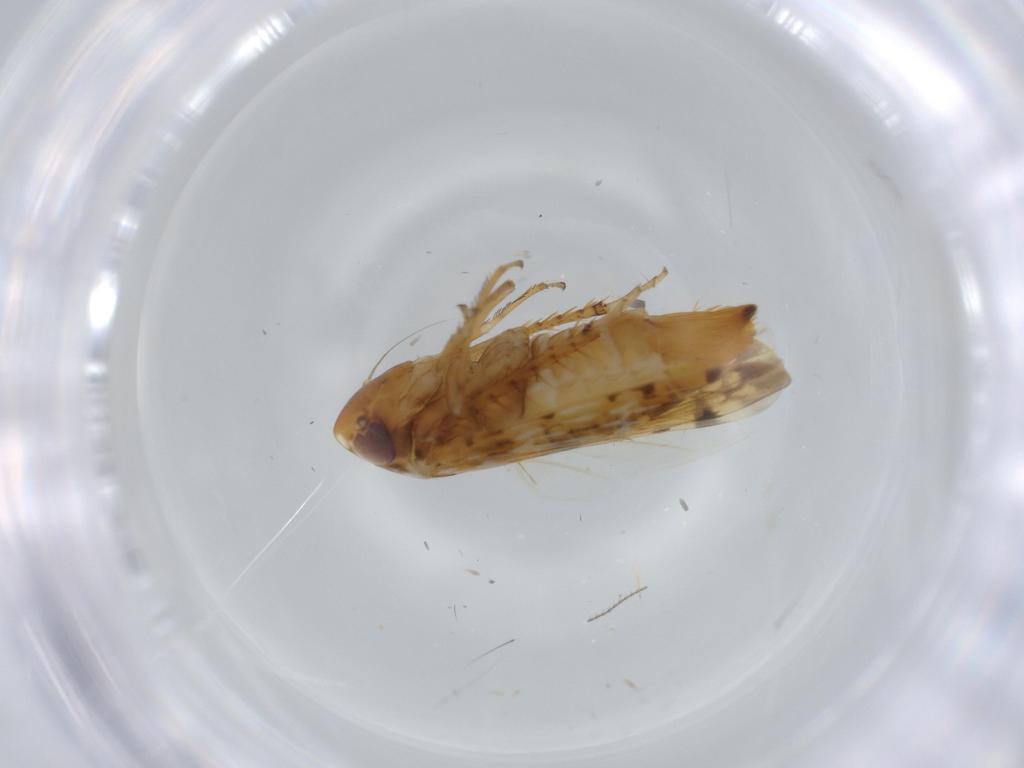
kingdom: Animalia
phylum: Arthropoda
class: Insecta
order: Hemiptera
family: Cicadellidae
